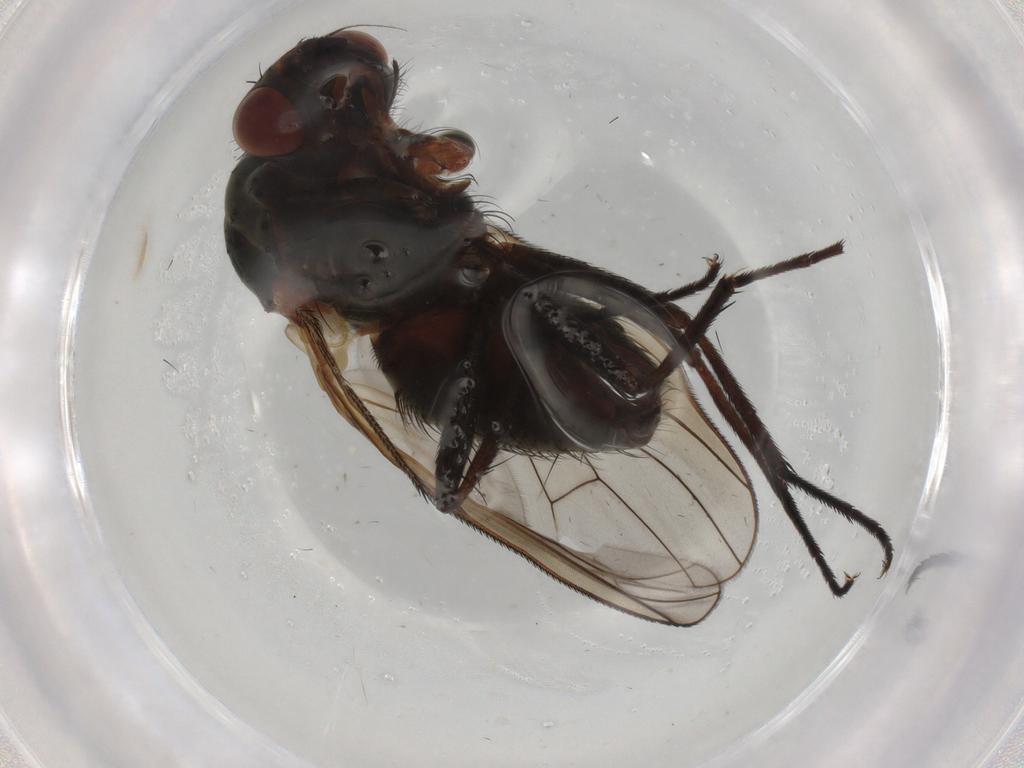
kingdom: Animalia
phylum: Arthropoda
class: Insecta
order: Diptera
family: Anthomyiidae
